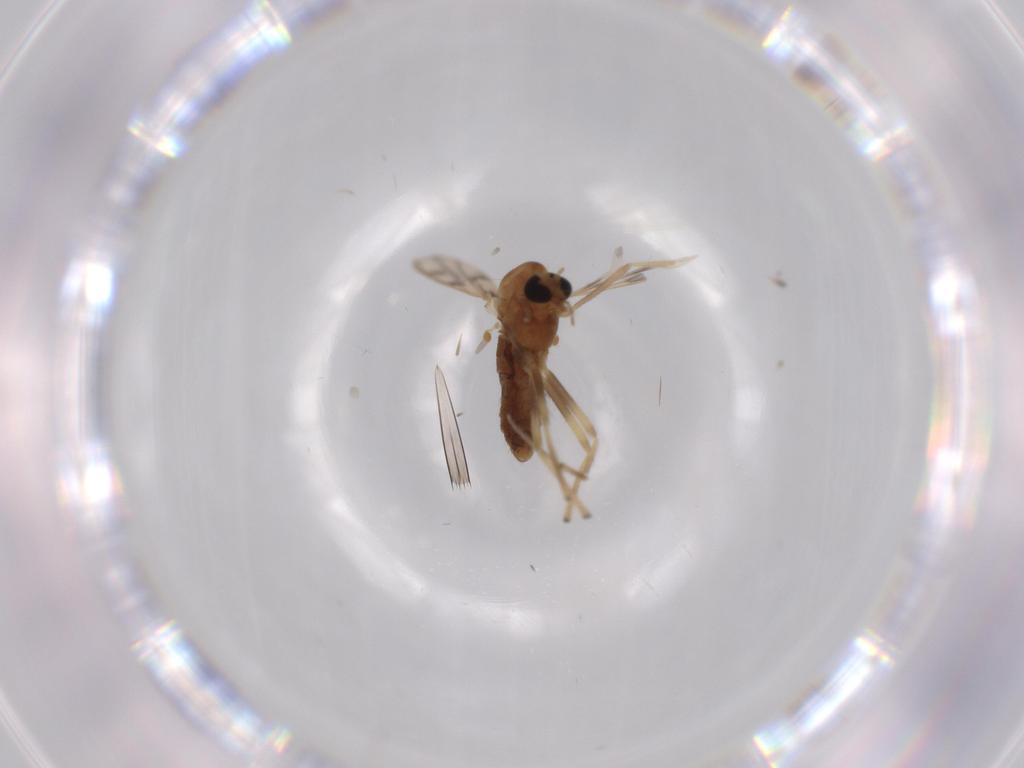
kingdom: Animalia
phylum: Arthropoda
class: Insecta
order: Diptera
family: Chironomidae
